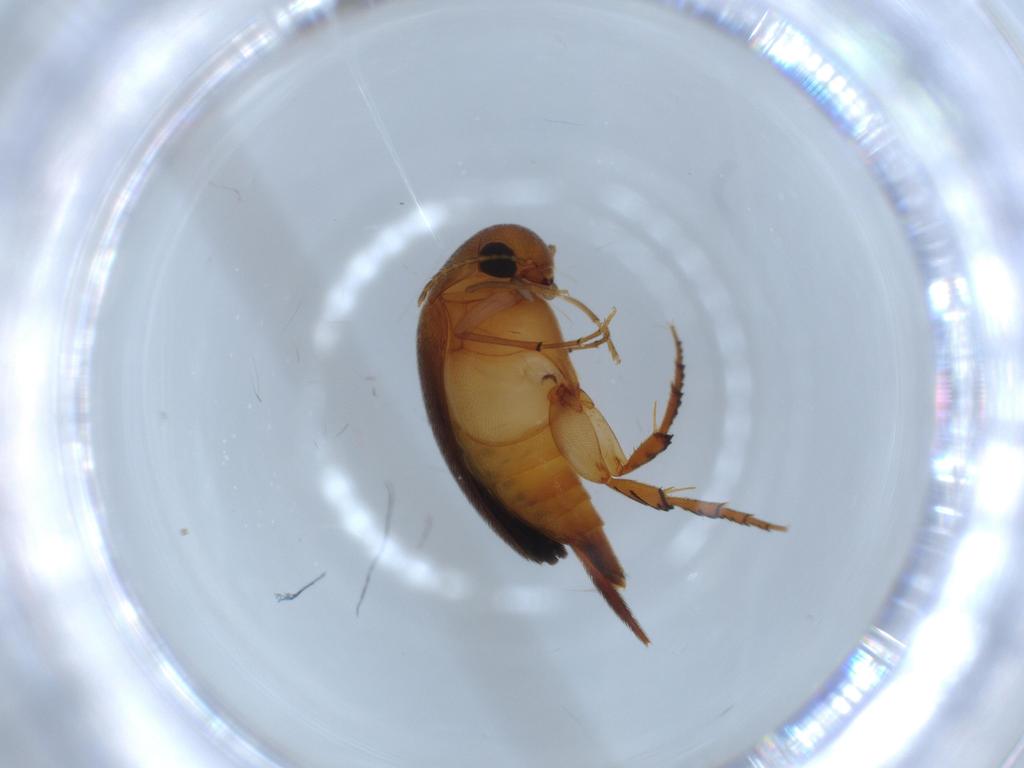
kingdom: Animalia
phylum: Arthropoda
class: Insecta
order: Coleoptera
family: Mordellidae
